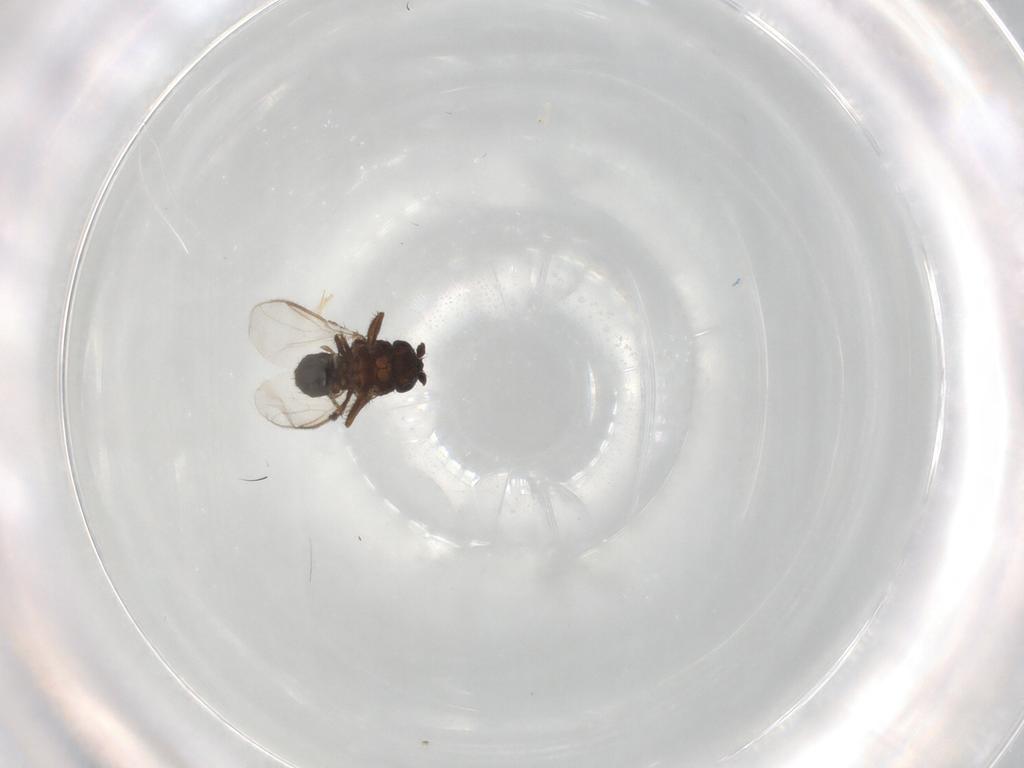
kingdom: Animalia
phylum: Arthropoda
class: Insecta
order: Diptera
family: Sphaeroceridae
